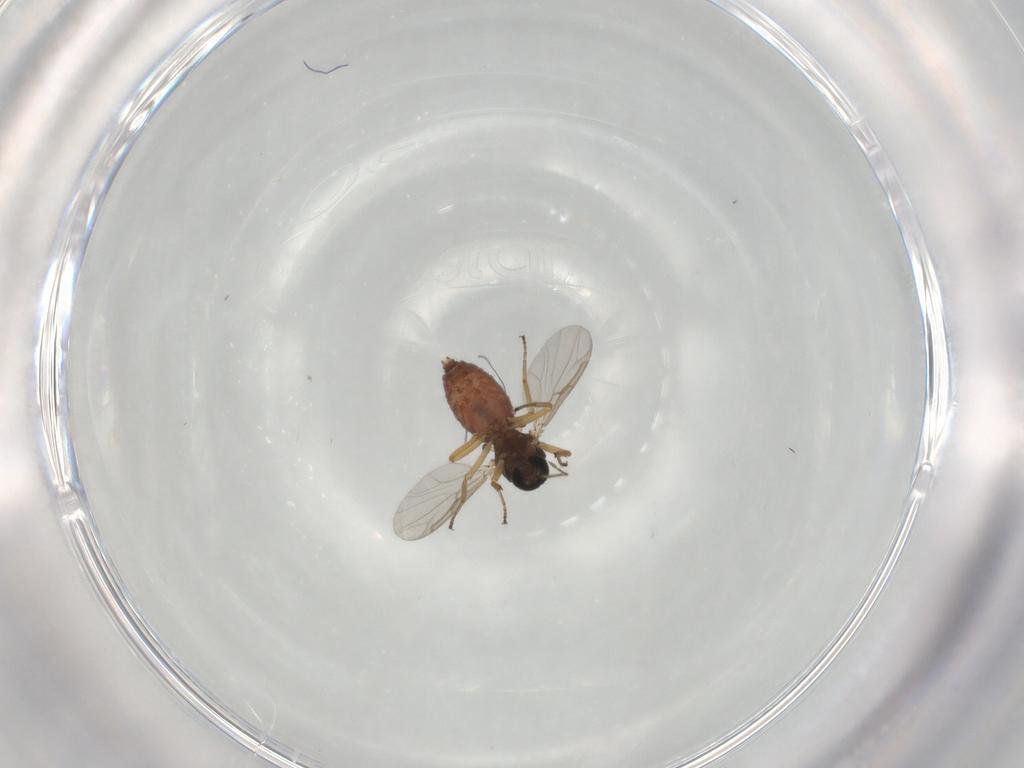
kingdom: Animalia
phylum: Arthropoda
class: Insecta
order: Diptera
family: Ceratopogonidae
